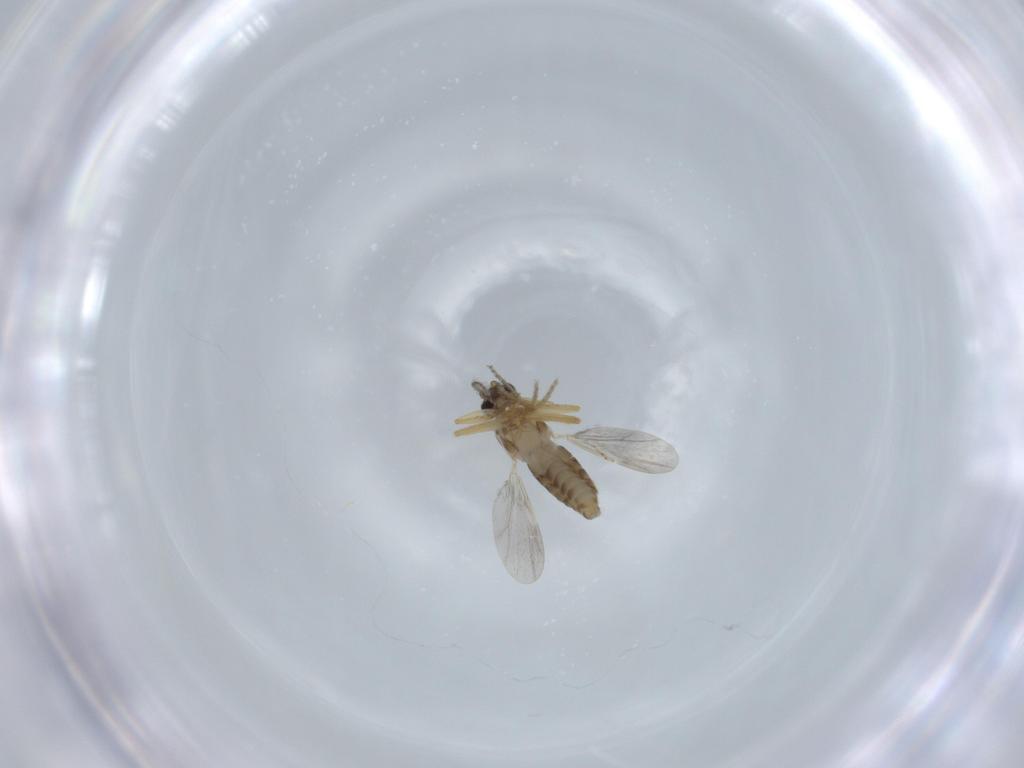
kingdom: Animalia
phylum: Arthropoda
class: Insecta
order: Diptera
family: Ceratopogonidae
